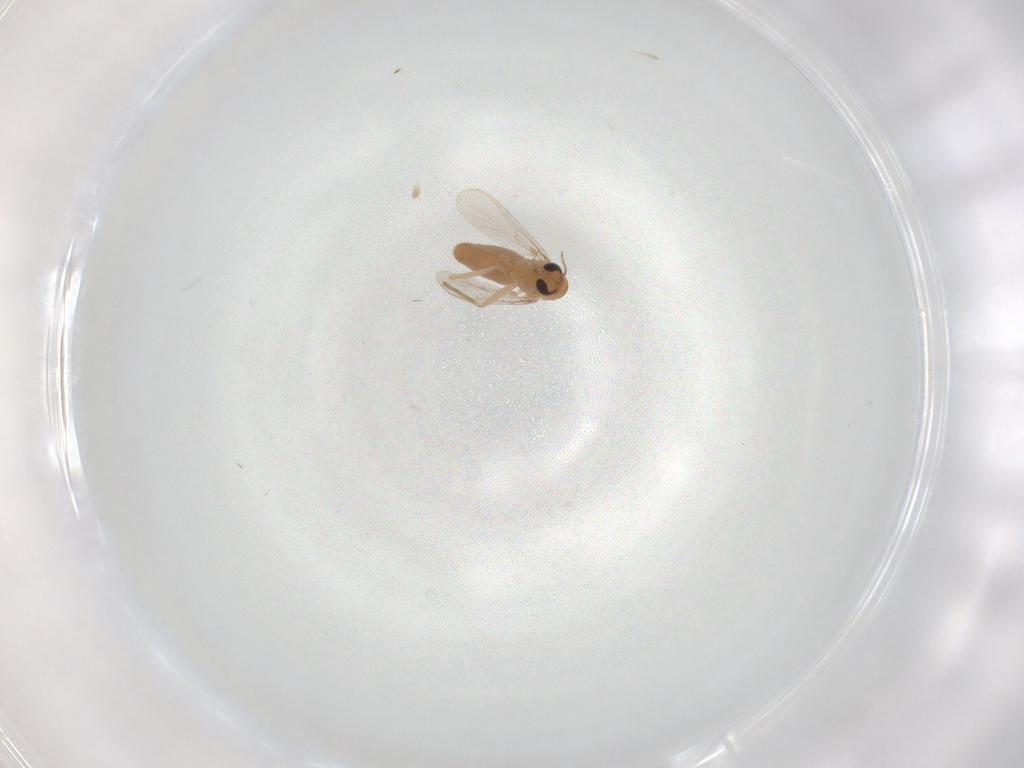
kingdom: Animalia
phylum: Arthropoda
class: Insecta
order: Diptera
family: Chironomidae
